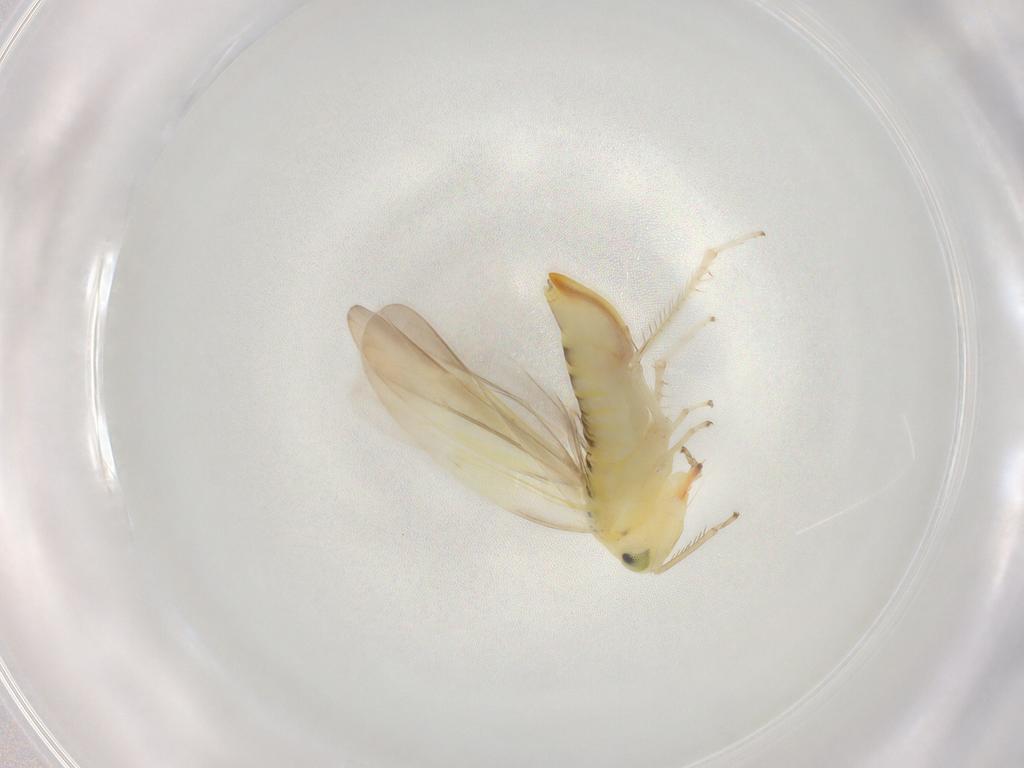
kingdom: Animalia
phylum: Arthropoda
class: Insecta
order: Hemiptera
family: Cicadellidae
